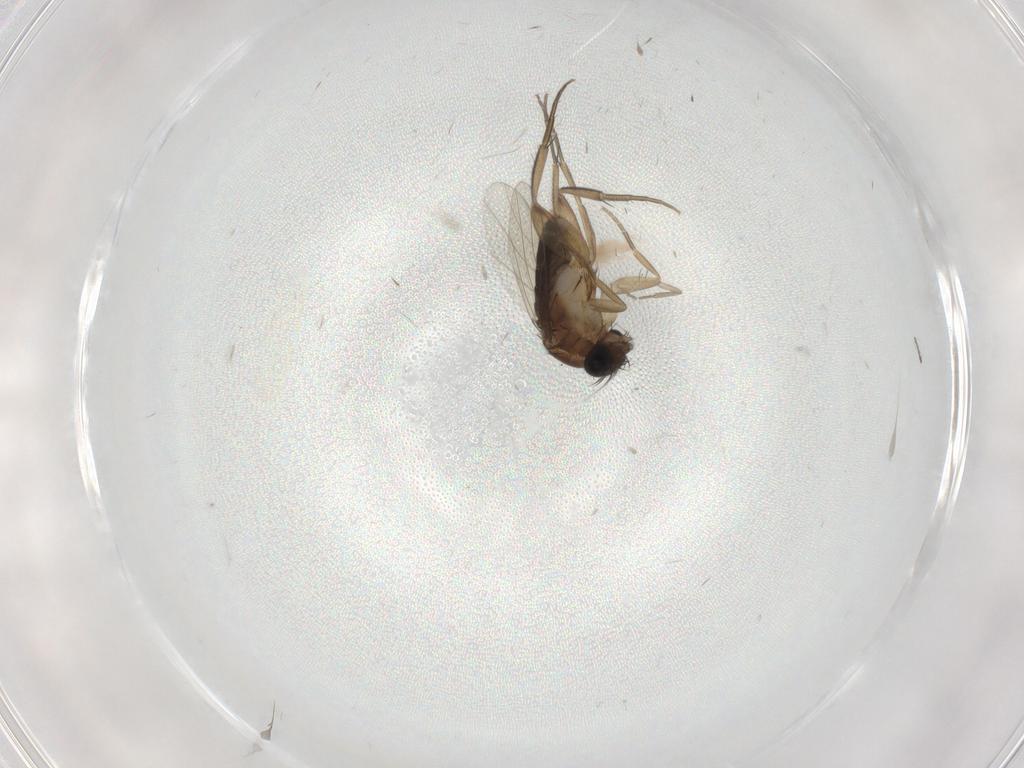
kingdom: Animalia
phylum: Arthropoda
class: Insecta
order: Diptera
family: Phoridae
